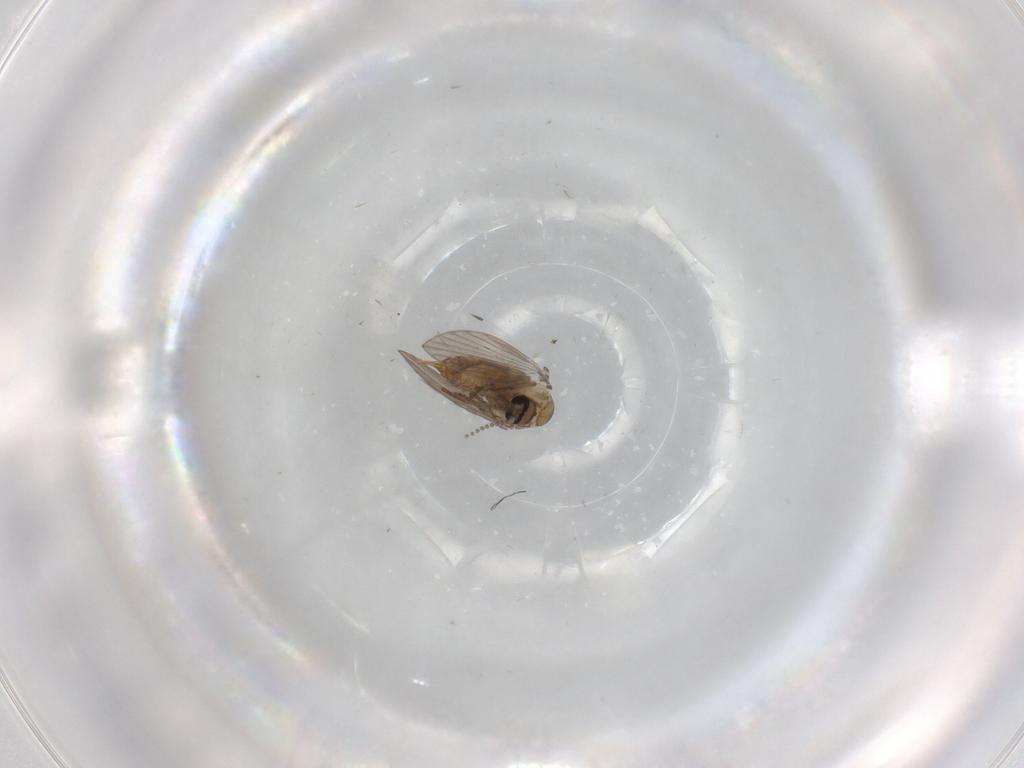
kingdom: Animalia
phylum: Arthropoda
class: Insecta
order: Diptera
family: Psychodidae
